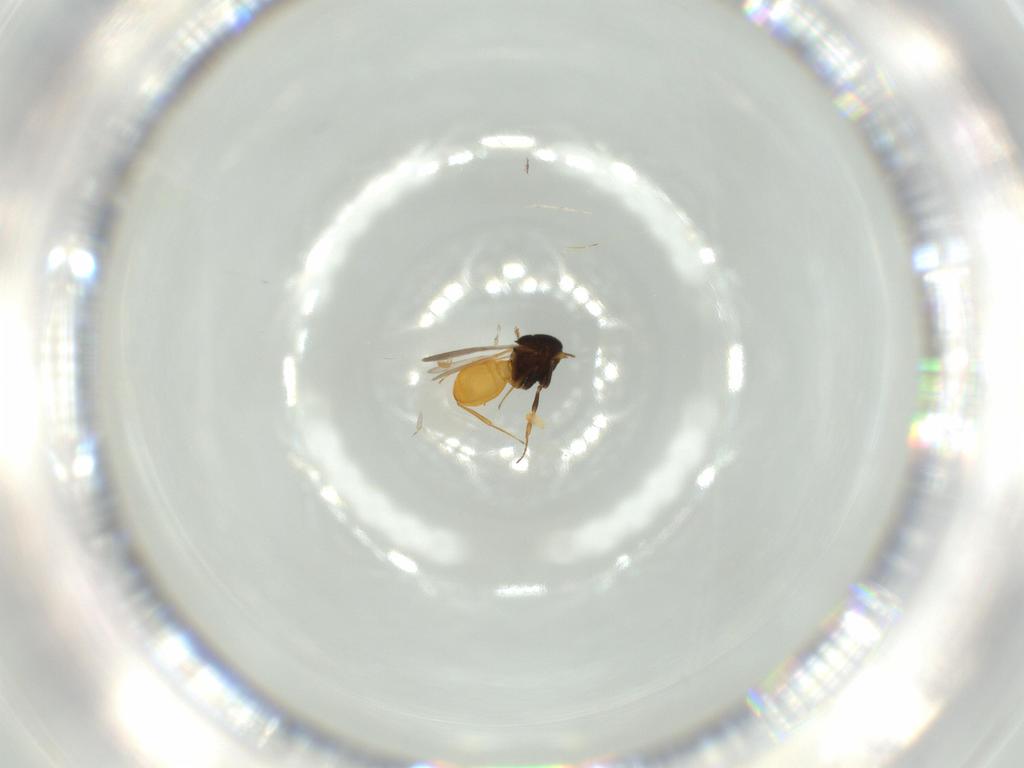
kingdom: Animalia
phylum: Arthropoda
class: Insecta
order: Hymenoptera
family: Scelionidae
